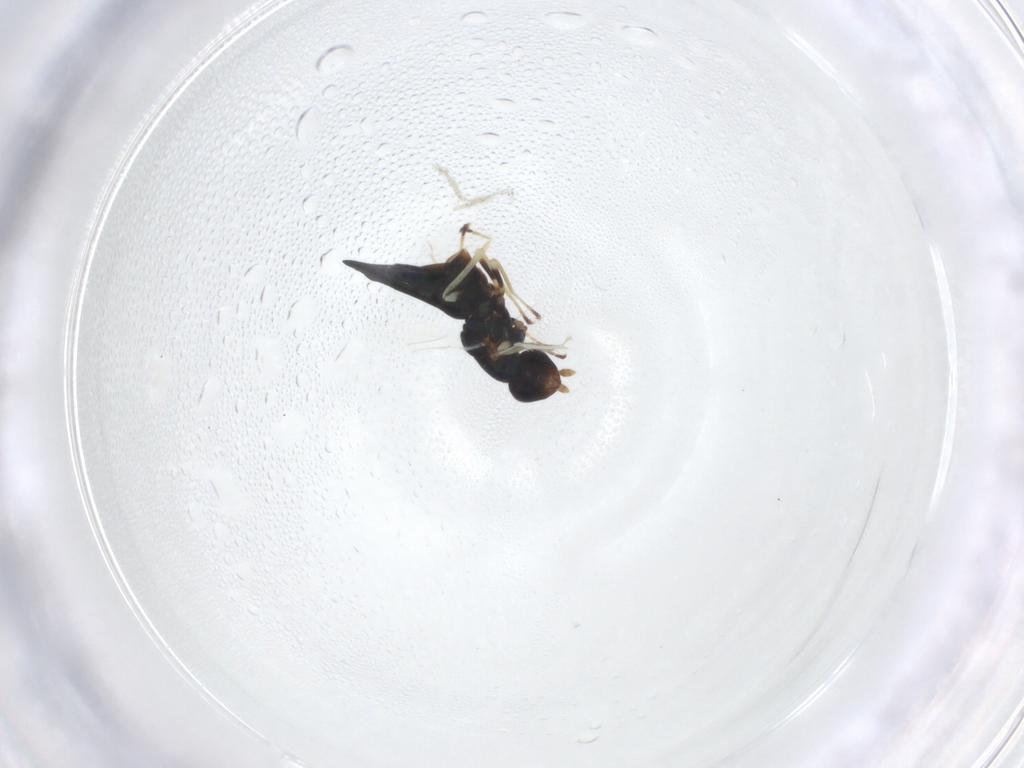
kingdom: Animalia
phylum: Arthropoda
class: Insecta
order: Hymenoptera
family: Eulophidae
